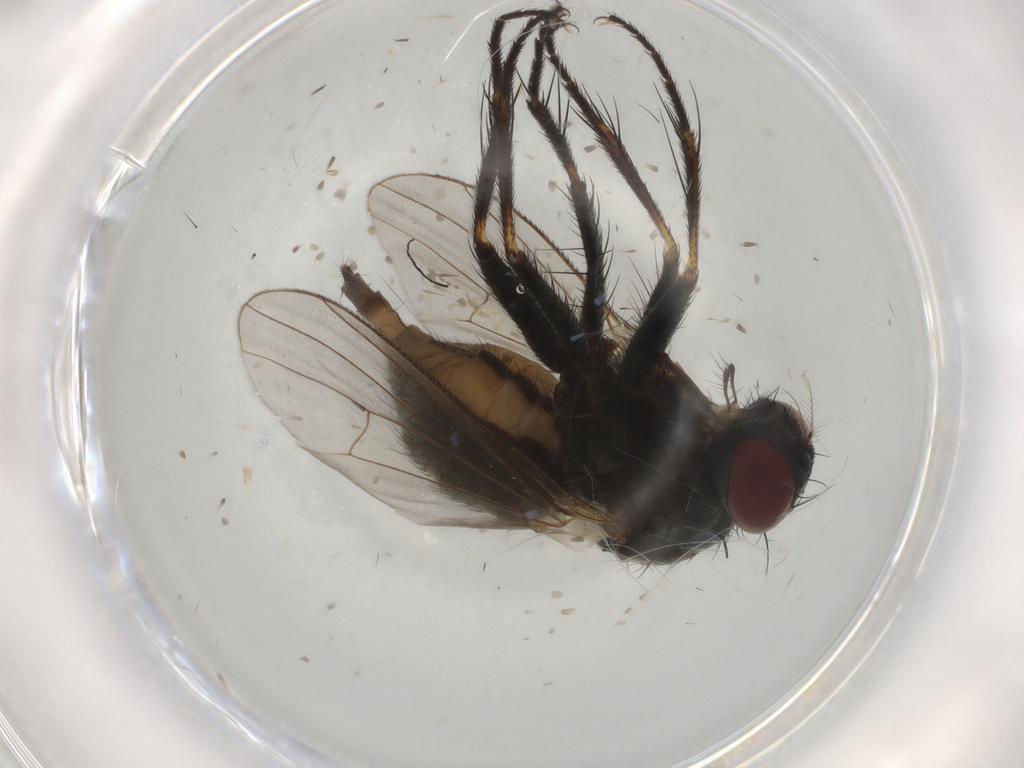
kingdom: Animalia
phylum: Arthropoda
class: Insecta
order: Diptera
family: Muscidae
